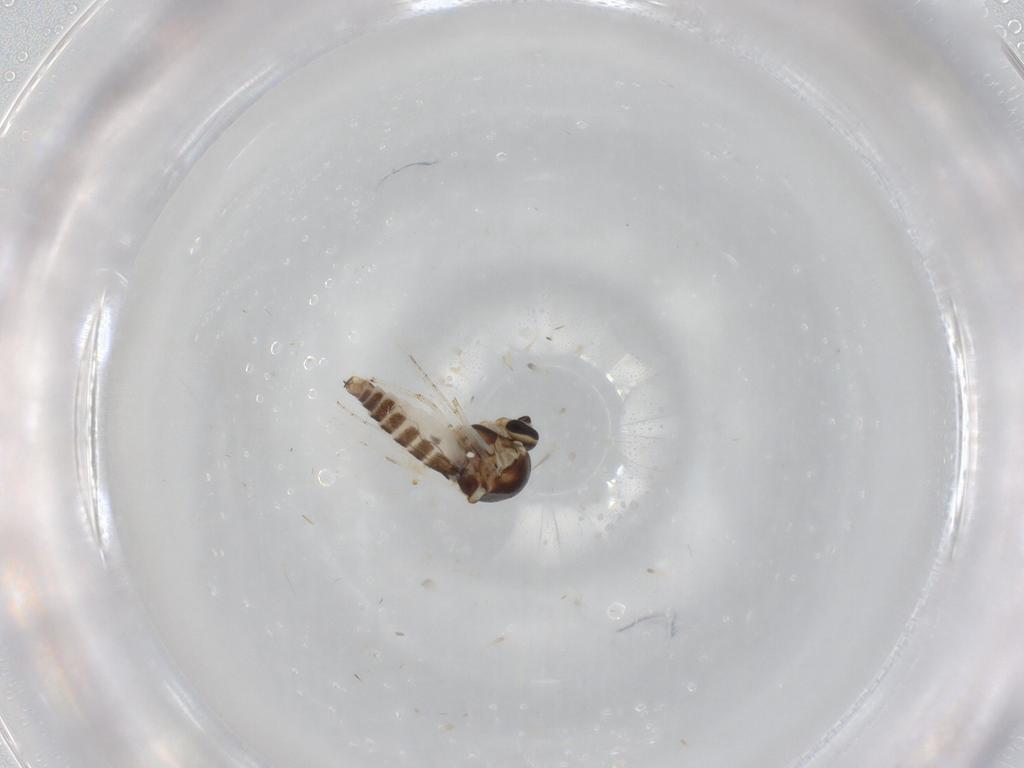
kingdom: Animalia
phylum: Arthropoda
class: Insecta
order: Diptera
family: Ceratopogonidae
